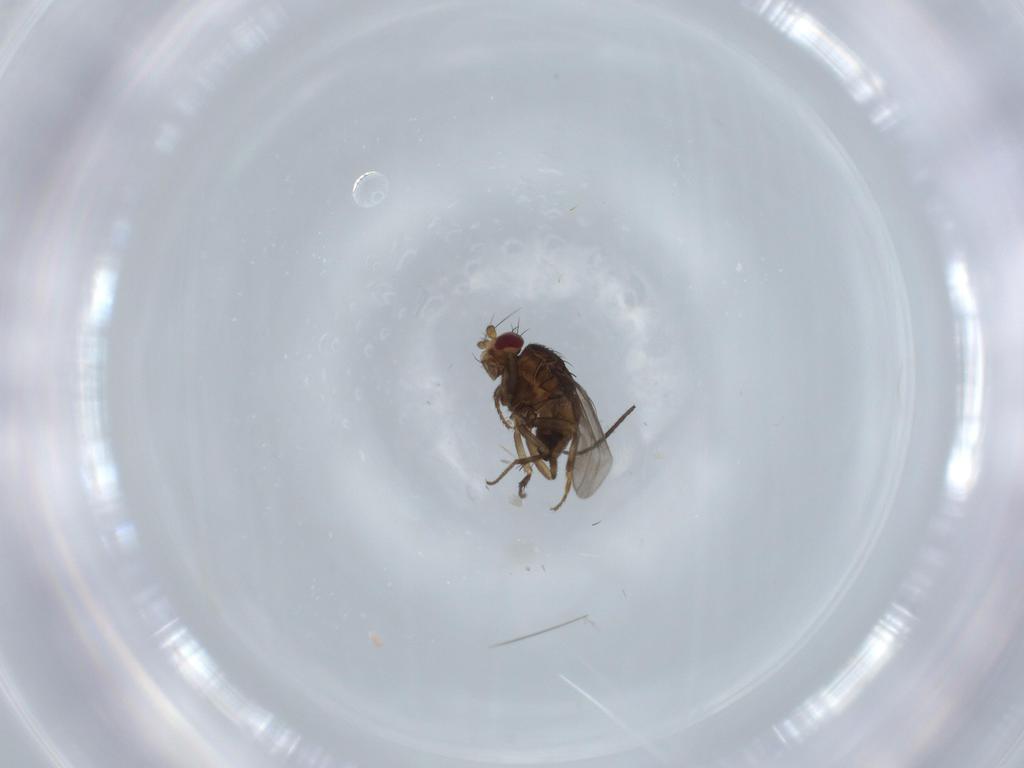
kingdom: Animalia
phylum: Arthropoda
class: Insecta
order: Diptera
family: Sciaridae
